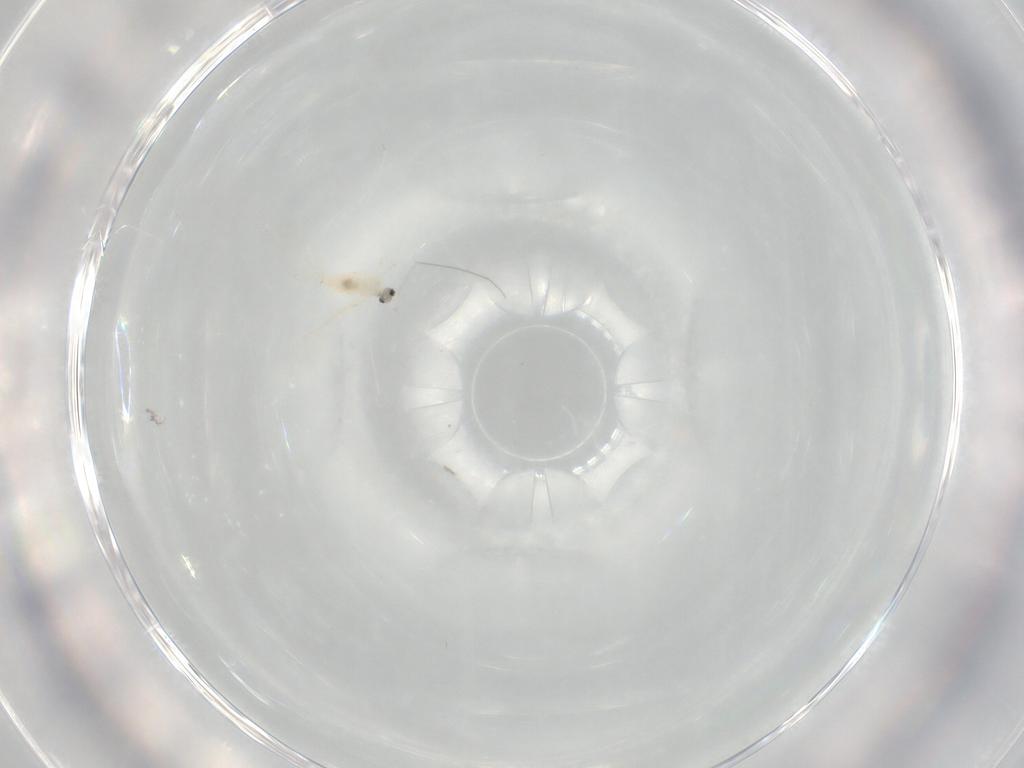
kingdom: Animalia
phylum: Arthropoda
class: Insecta
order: Diptera
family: Cecidomyiidae
